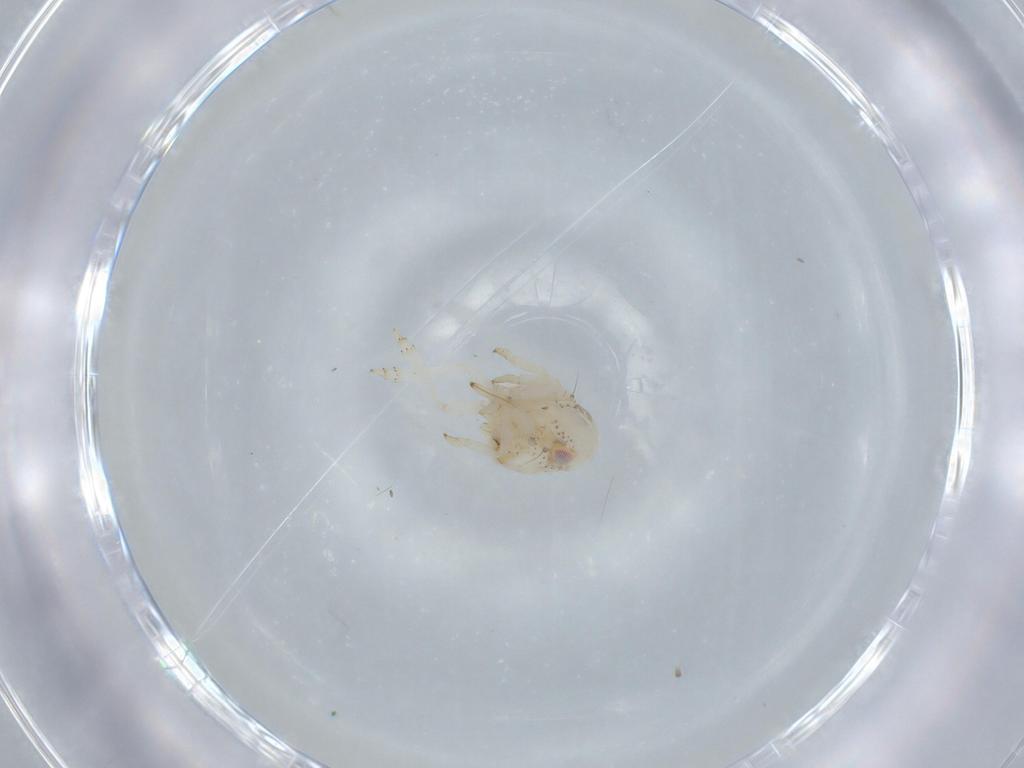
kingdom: Animalia
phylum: Arthropoda
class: Insecta
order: Hemiptera
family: Acanaloniidae
